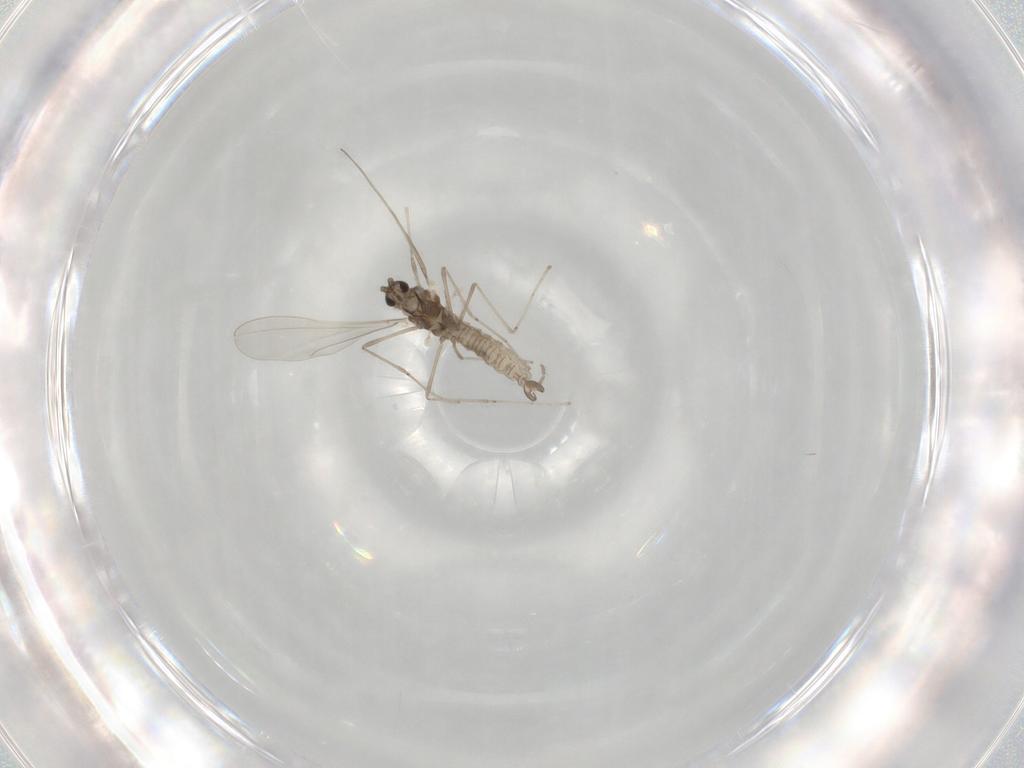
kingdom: Animalia
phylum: Arthropoda
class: Insecta
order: Diptera
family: Cecidomyiidae
